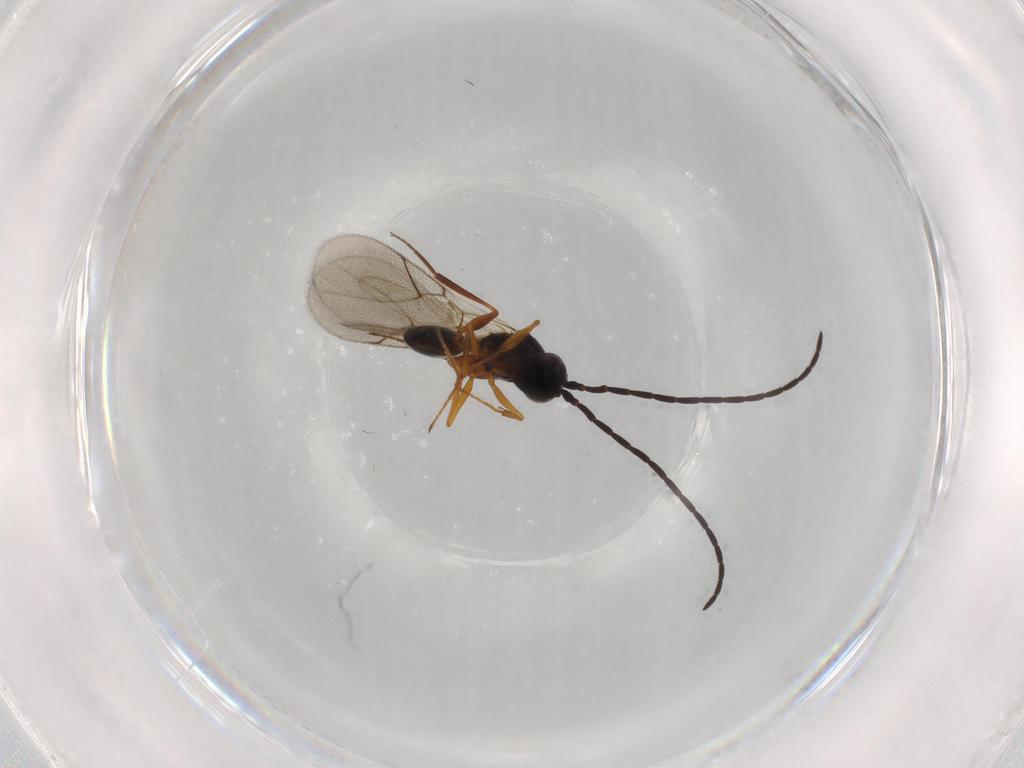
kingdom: Animalia
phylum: Arthropoda
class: Insecta
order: Hymenoptera
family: Figitidae
